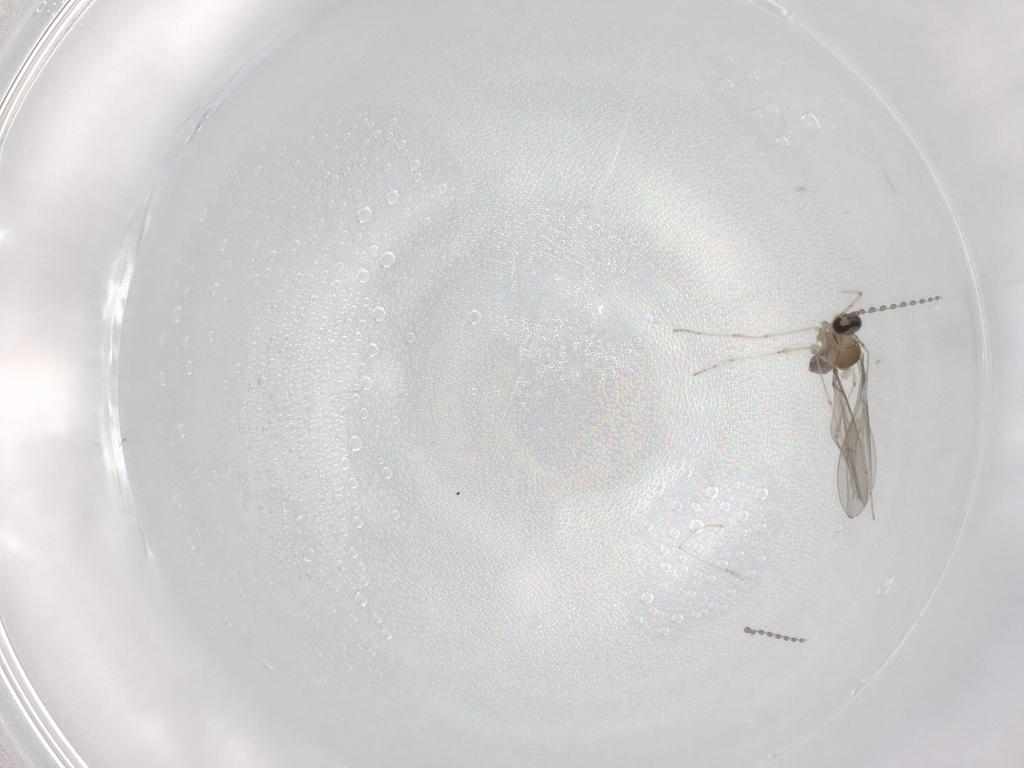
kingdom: Animalia
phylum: Arthropoda
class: Insecta
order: Diptera
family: Cecidomyiidae
